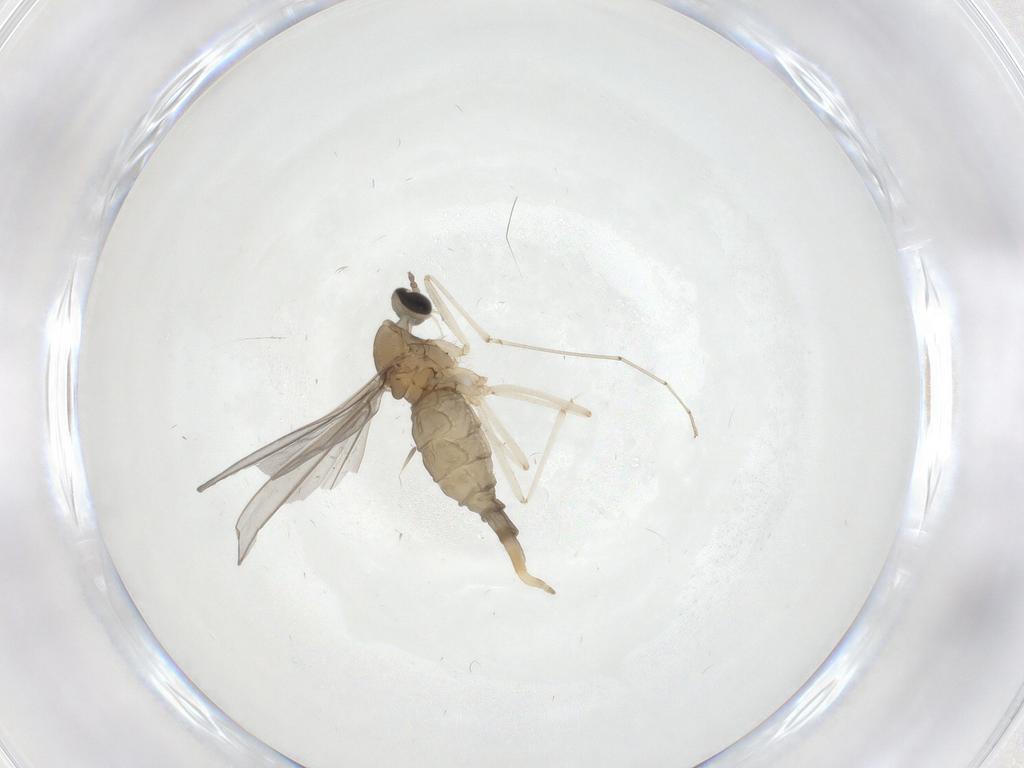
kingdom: Animalia
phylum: Arthropoda
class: Insecta
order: Diptera
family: Cecidomyiidae
